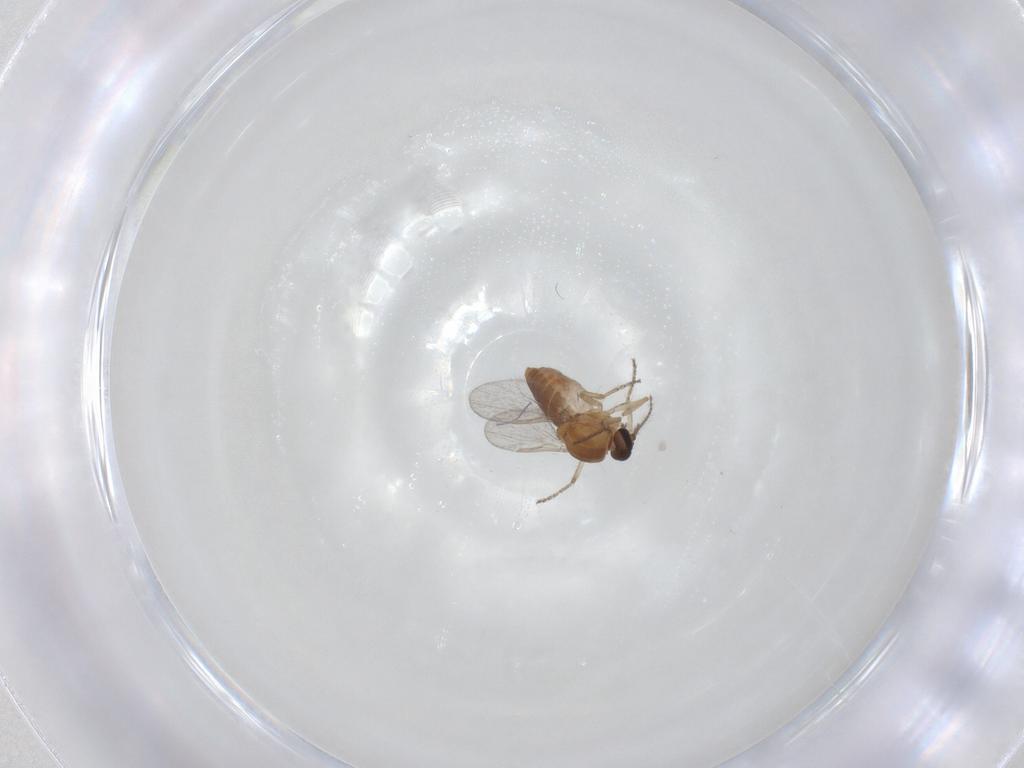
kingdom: Animalia
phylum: Arthropoda
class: Insecta
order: Diptera
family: Ceratopogonidae
